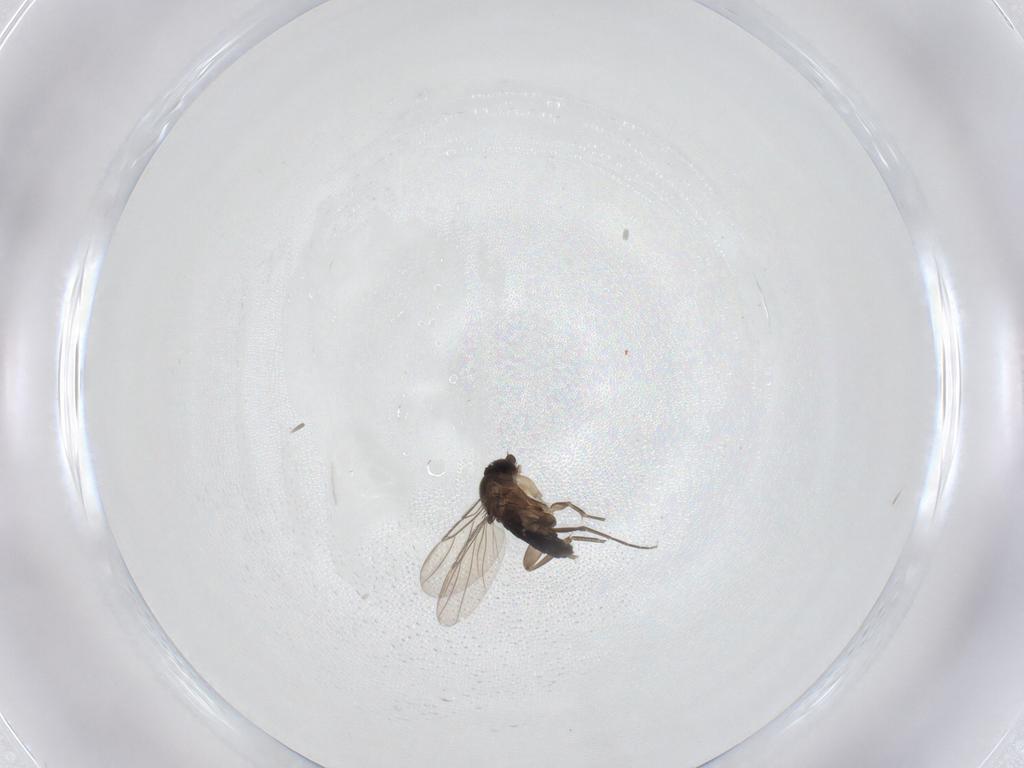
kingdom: Animalia
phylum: Arthropoda
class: Insecta
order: Diptera
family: Phoridae
